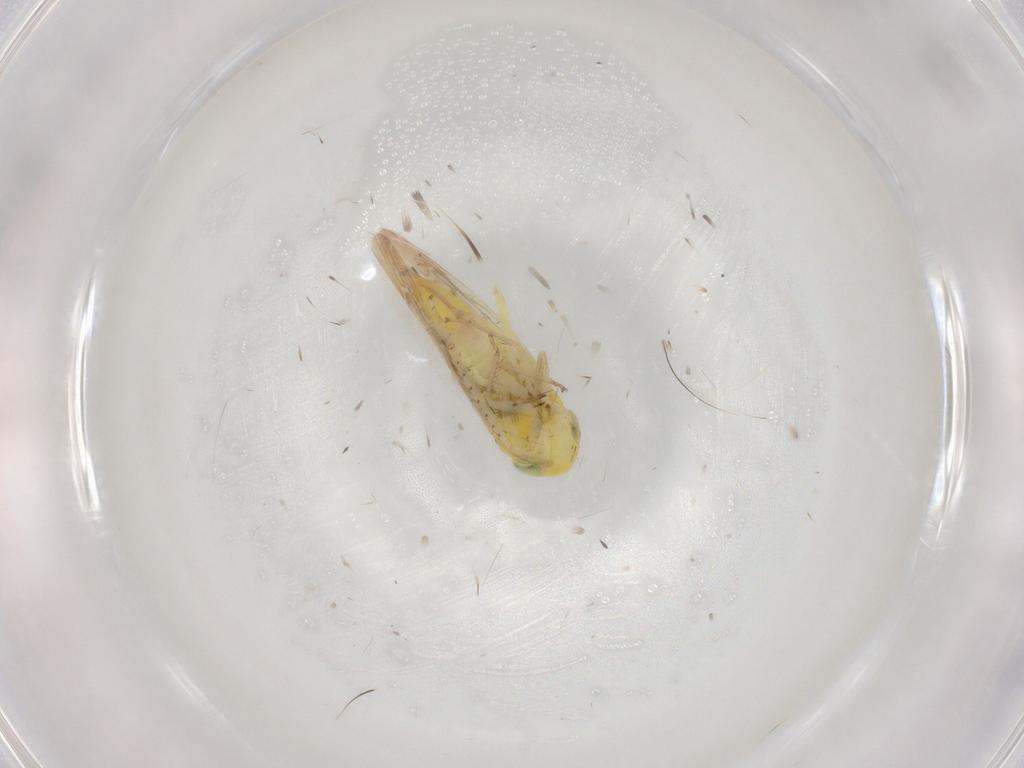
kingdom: Animalia
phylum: Arthropoda
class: Insecta
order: Hemiptera
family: Cicadellidae
